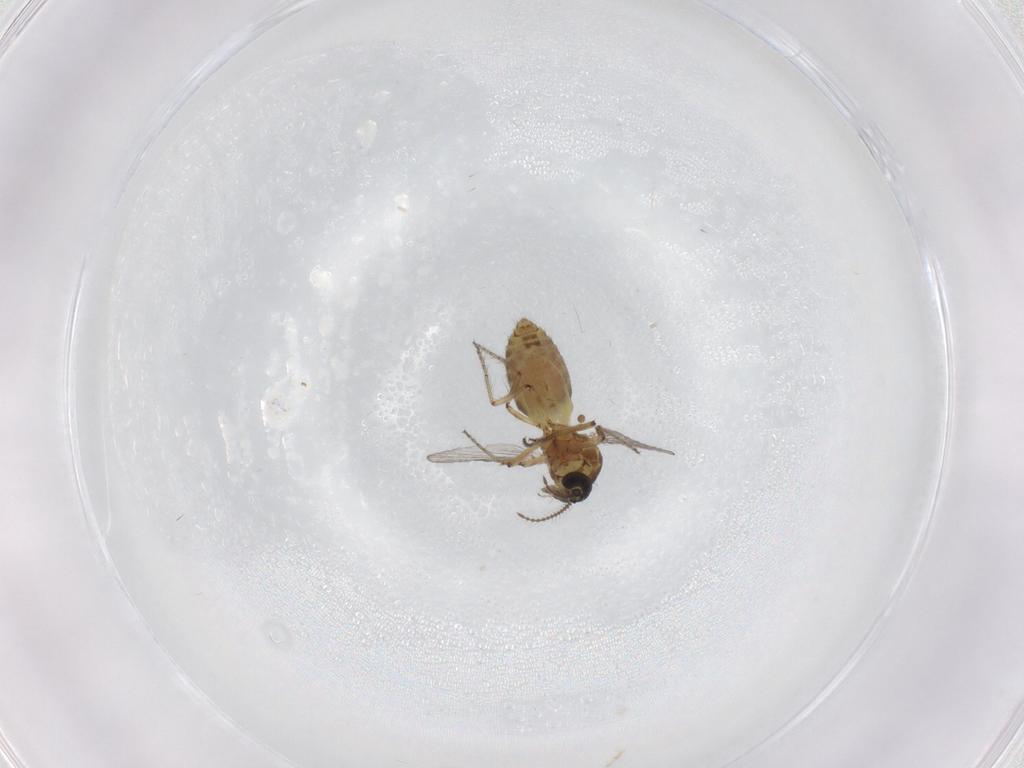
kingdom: Animalia
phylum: Arthropoda
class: Insecta
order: Diptera
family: Ceratopogonidae
